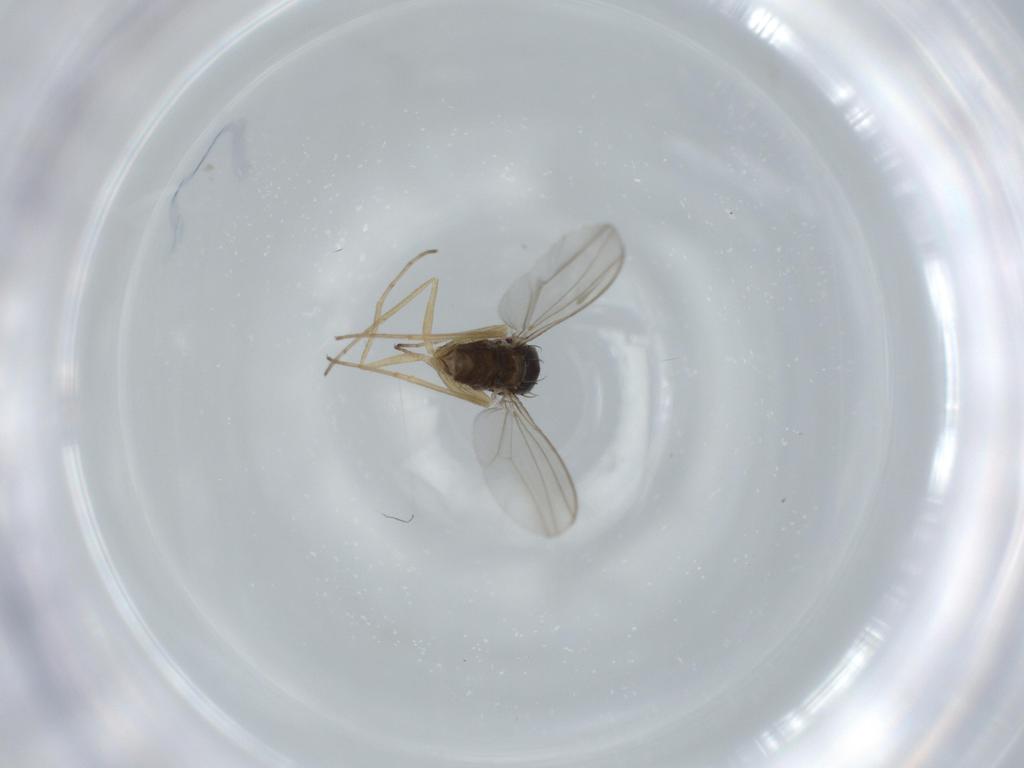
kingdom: Animalia
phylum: Arthropoda
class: Insecta
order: Diptera
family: Dolichopodidae
